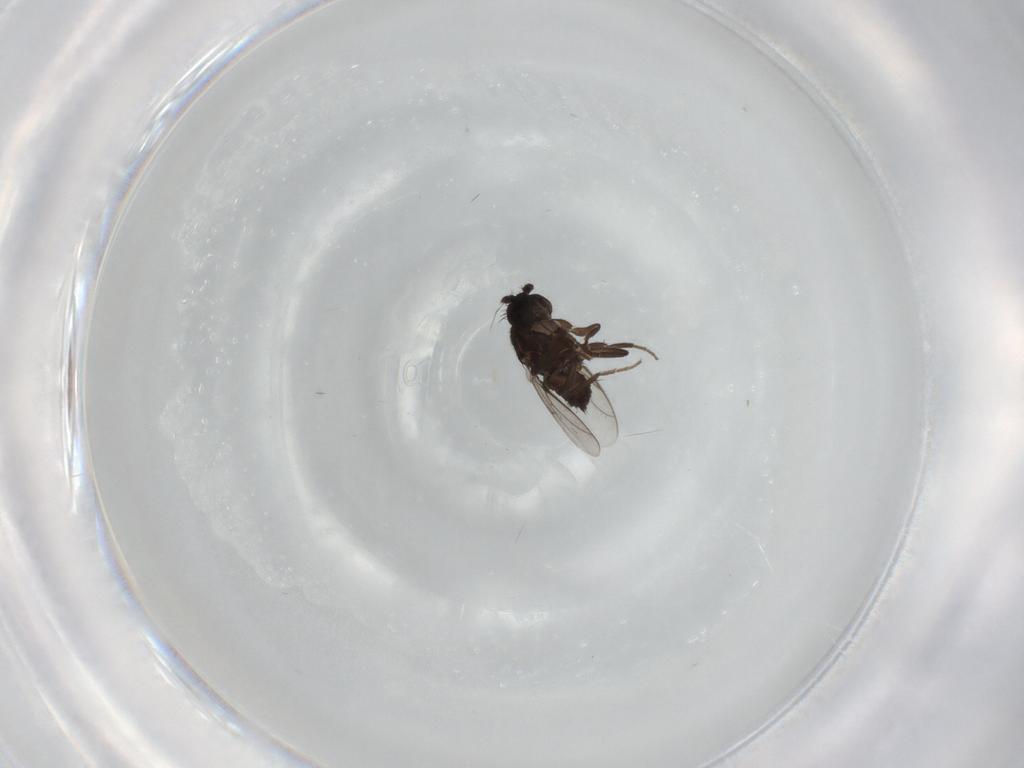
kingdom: Animalia
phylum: Arthropoda
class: Insecta
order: Diptera
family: Sphaeroceridae
